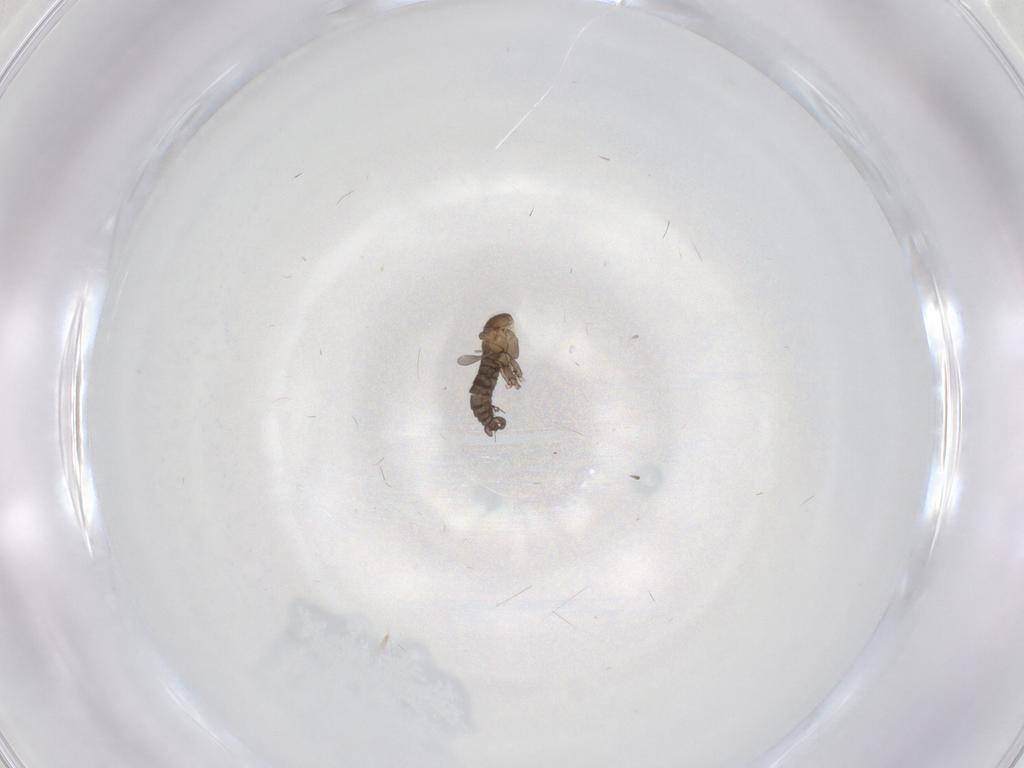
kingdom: Animalia
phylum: Arthropoda
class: Insecta
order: Diptera
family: Sciaridae
